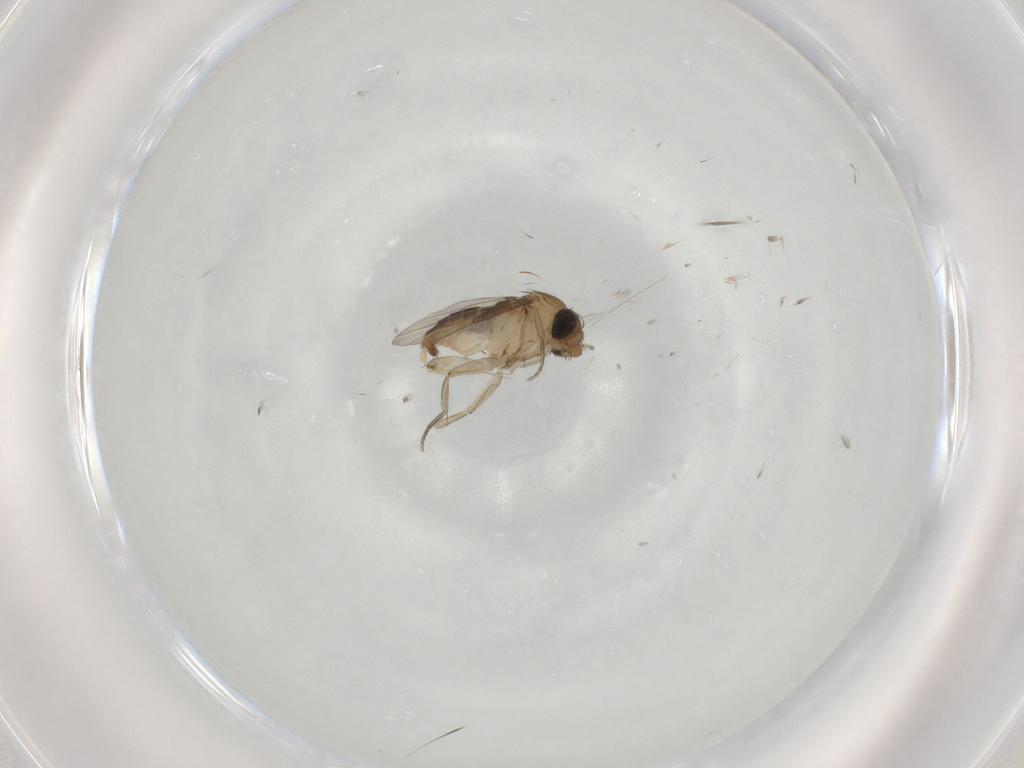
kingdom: Animalia
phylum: Arthropoda
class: Insecta
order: Diptera
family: Phoridae
